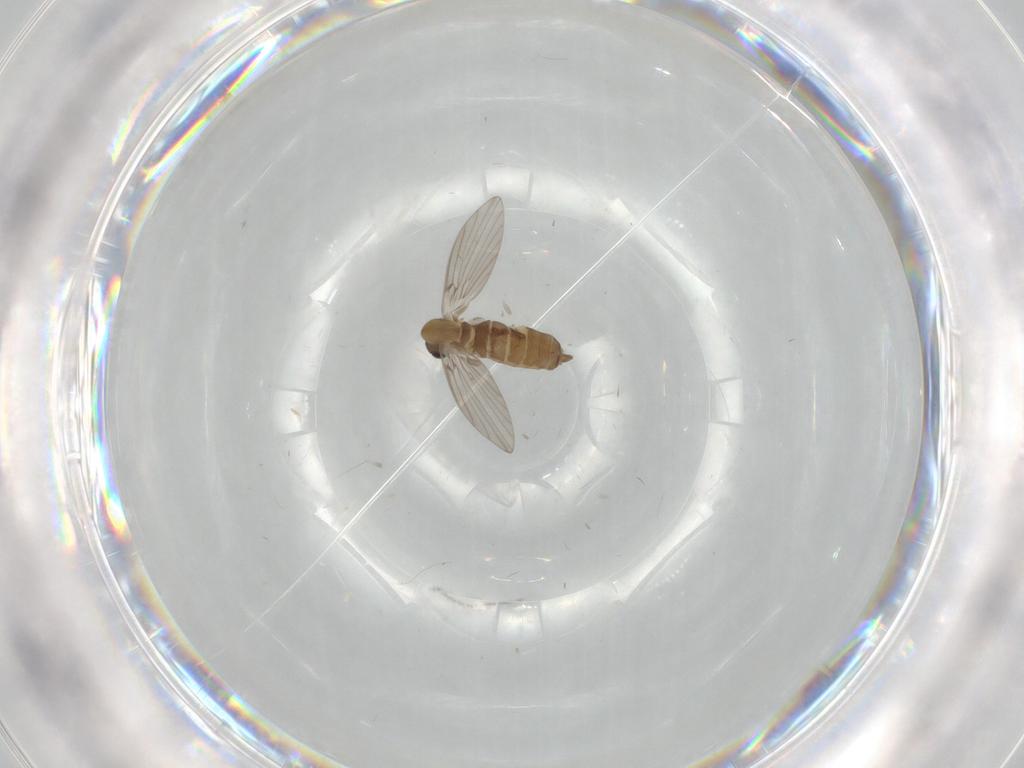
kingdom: Animalia
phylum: Arthropoda
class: Insecta
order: Diptera
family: Psychodidae
